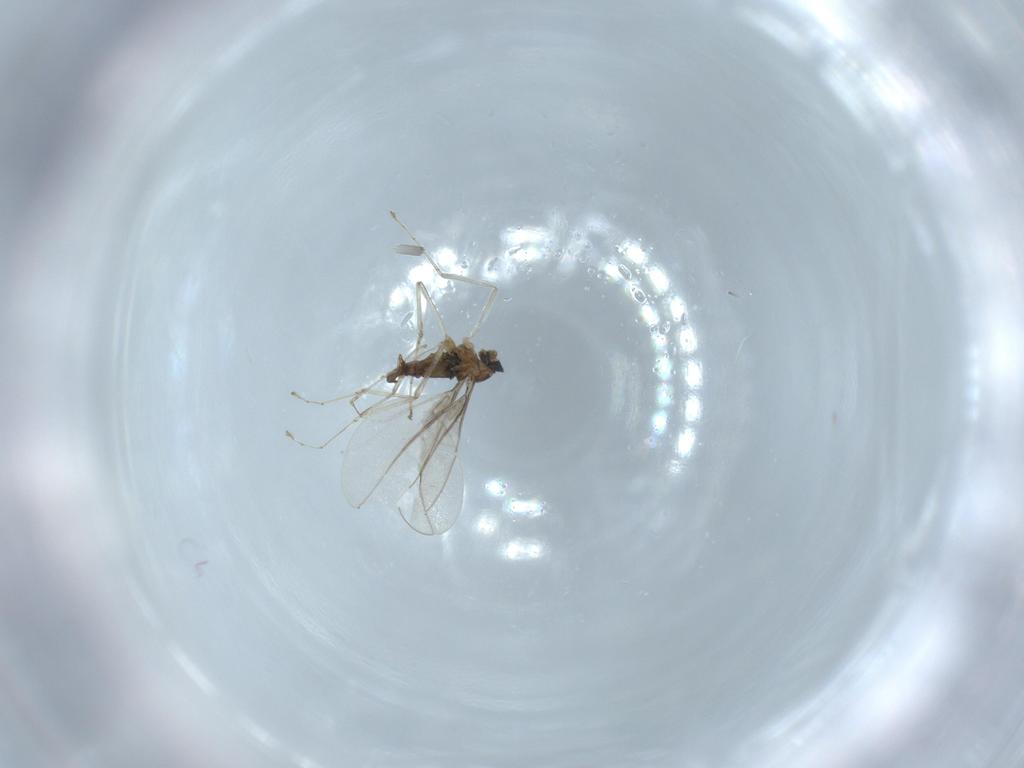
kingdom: Animalia
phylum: Arthropoda
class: Insecta
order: Diptera
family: Cecidomyiidae
